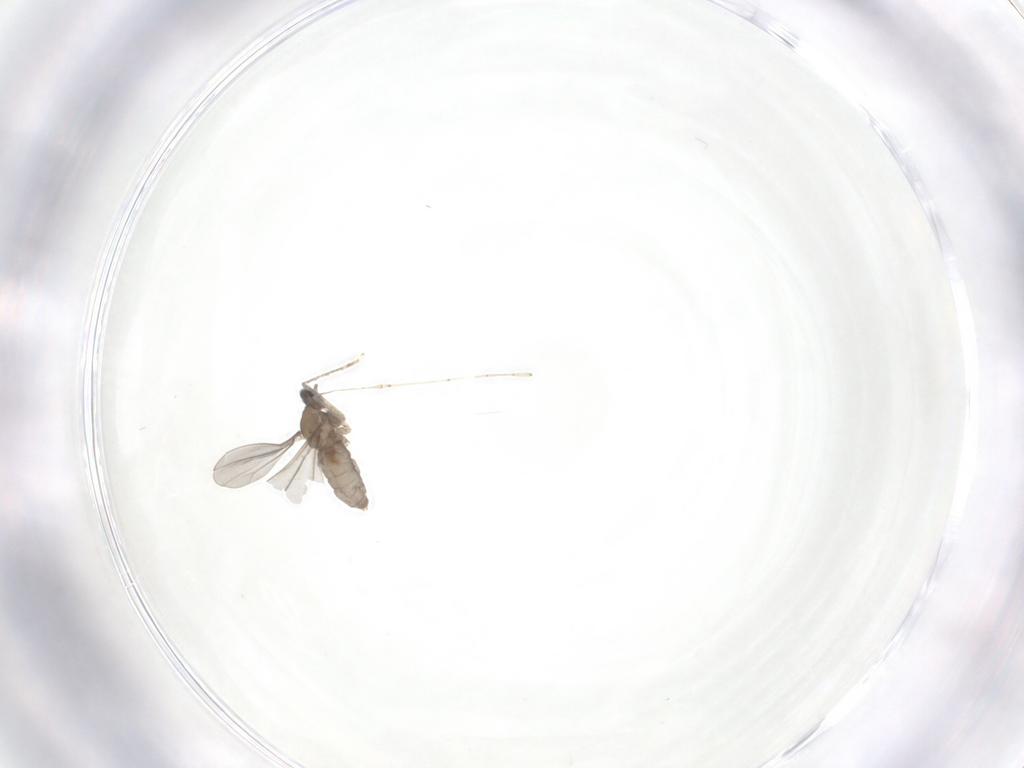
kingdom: Animalia
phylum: Arthropoda
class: Insecta
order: Diptera
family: Cecidomyiidae
